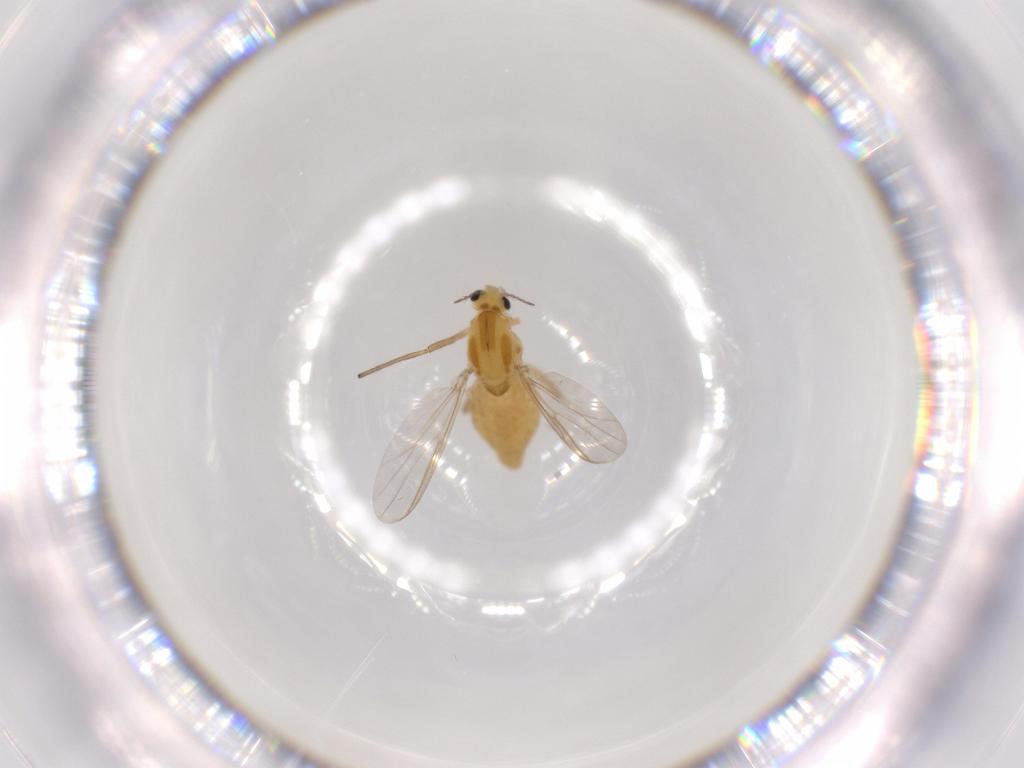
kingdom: Animalia
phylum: Arthropoda
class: Insecta
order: Diptera
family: Chironomidae
